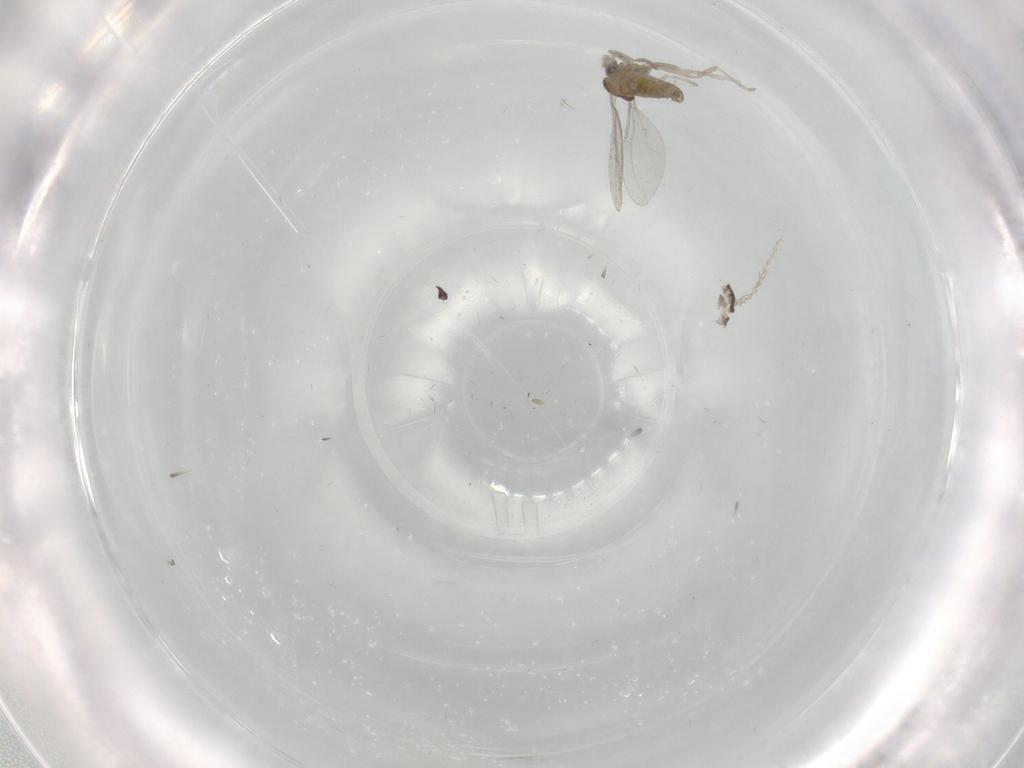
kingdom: Animalia
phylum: Arthropoda
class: Insecta
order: Diptera
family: Cecidomyiidae
